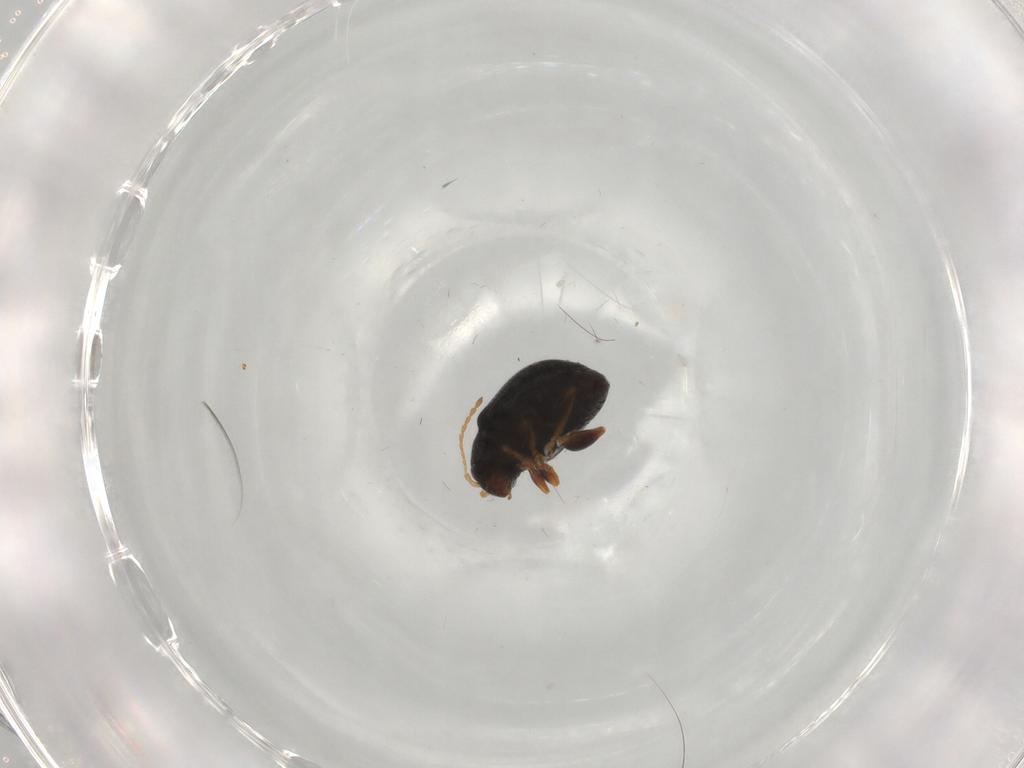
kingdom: Animalia
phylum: Arthropoda
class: Insecta
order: Coleoptera
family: Chrysomelidae
